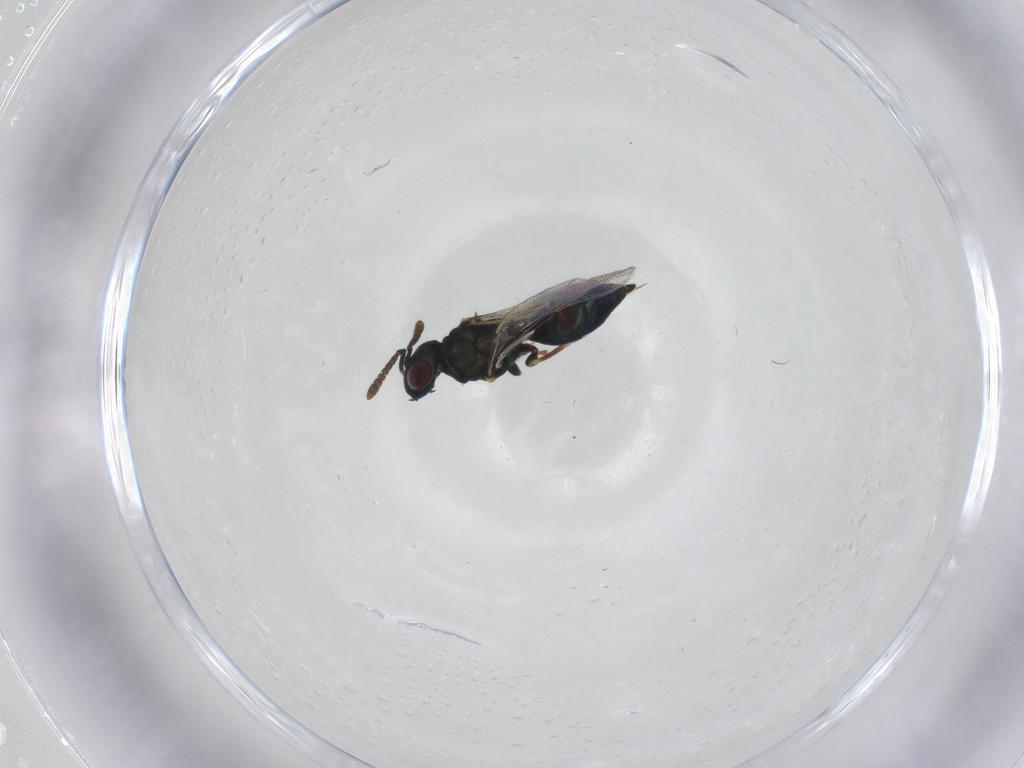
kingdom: Animalia
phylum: Arthropoda
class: Insecta
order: Hymenoptera
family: Pteromalidae
